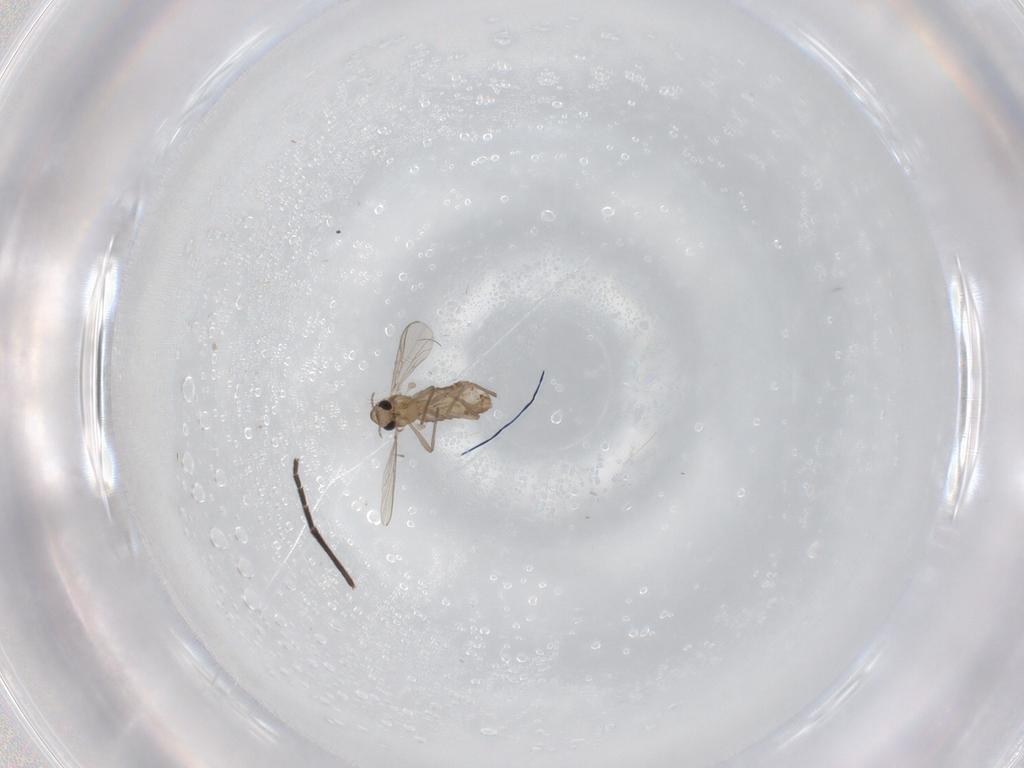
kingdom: Animalia
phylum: Arthropoda
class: Insecta
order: Diptera
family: Chironomidae
